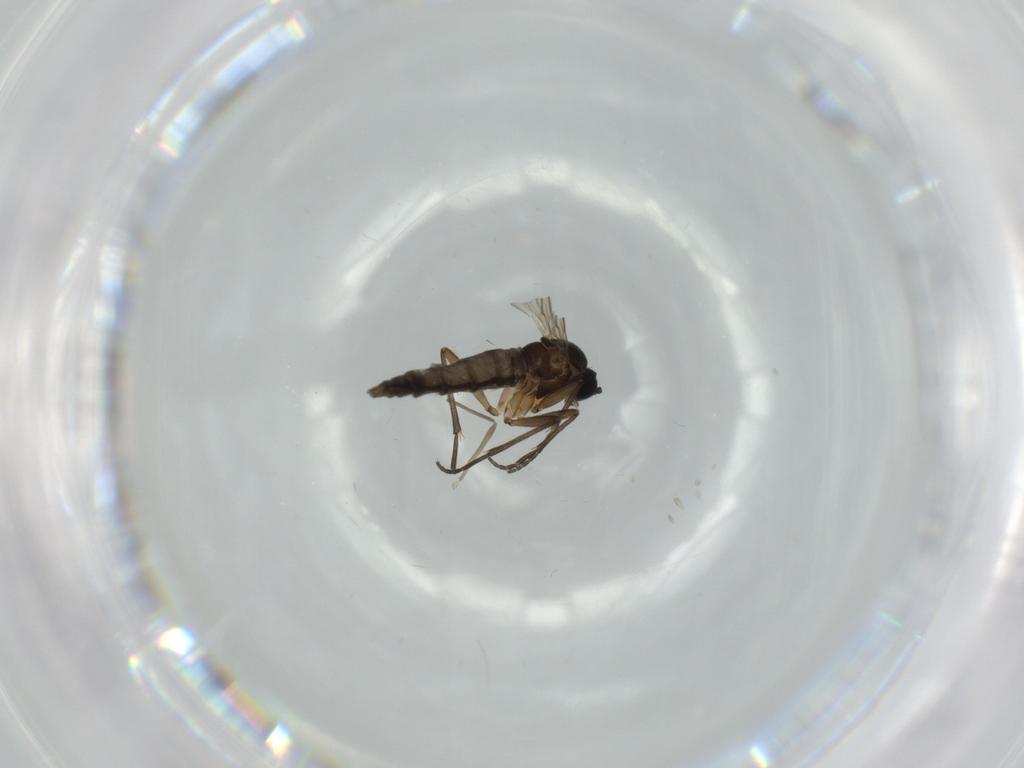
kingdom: Animalia
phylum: Arthropoda
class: Insecta
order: Diptera
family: Sciaridae
